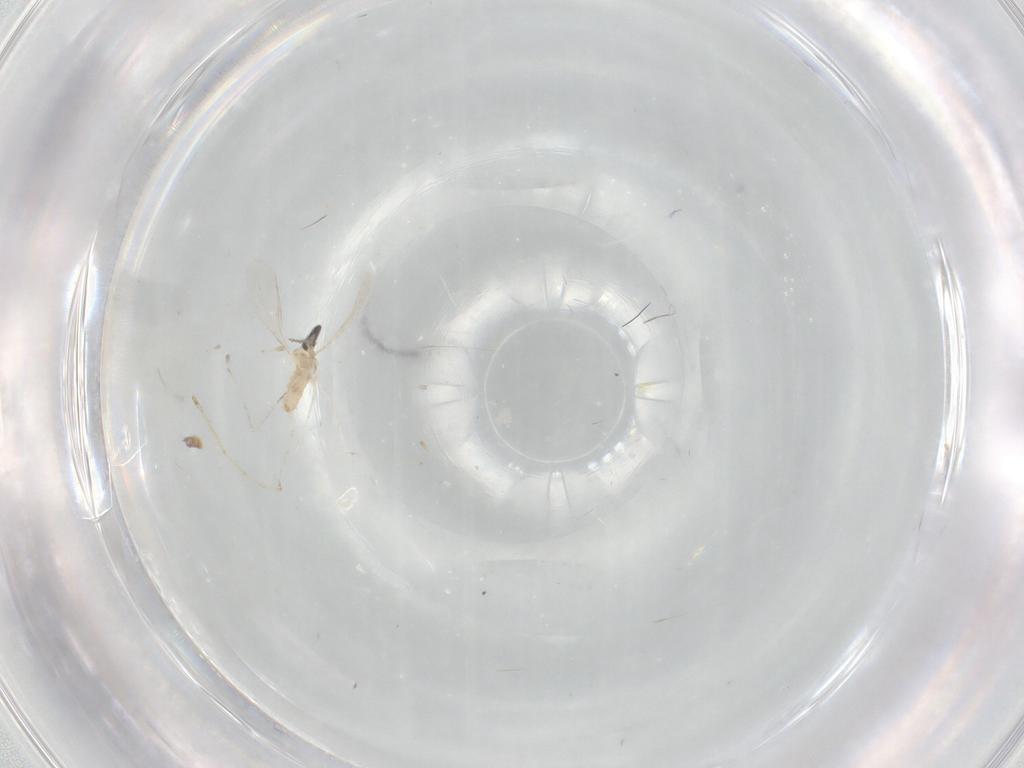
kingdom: Animalia
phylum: Arthropoda
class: Insecta
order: Diptera
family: Cecidomyiidae
